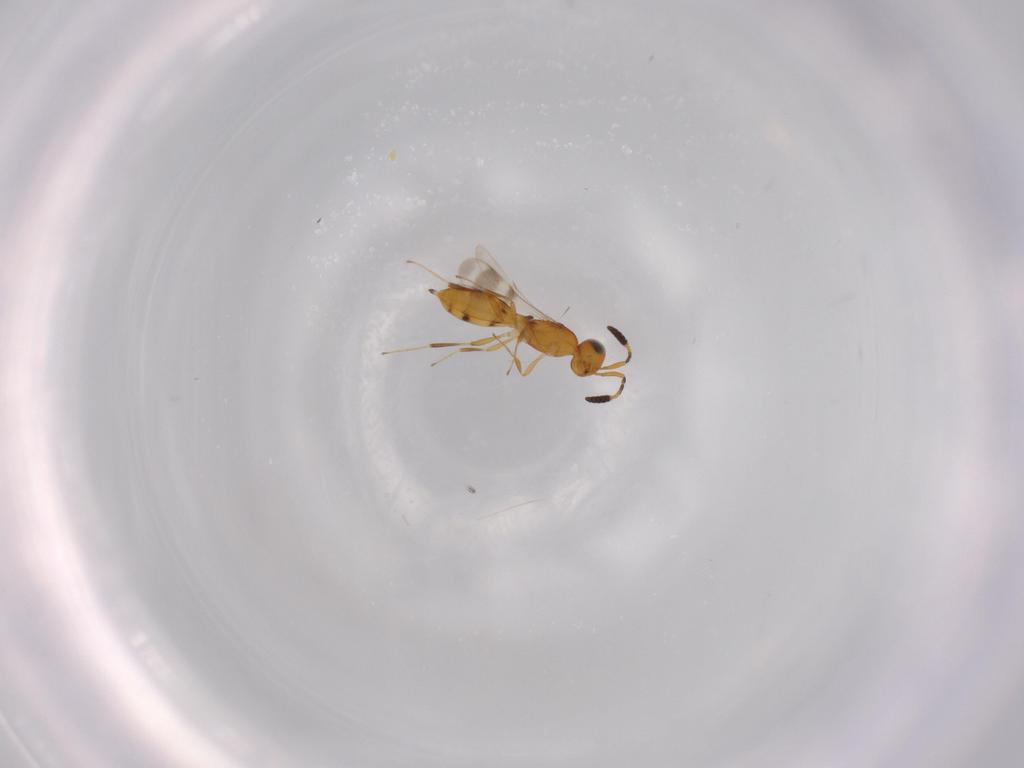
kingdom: Animalia
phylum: Arthropoda
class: Insecta
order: Hymenoptera
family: Scelionidae
